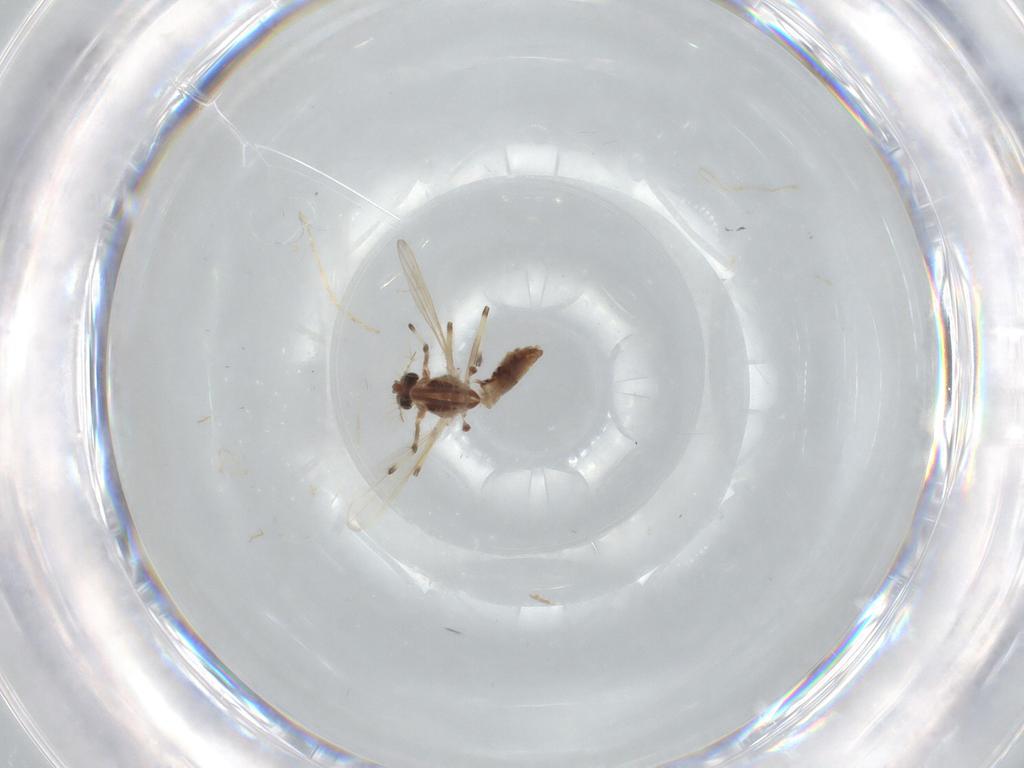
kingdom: Animalia
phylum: Arthropoda
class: Insecta
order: Diptera
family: Chironomidae
